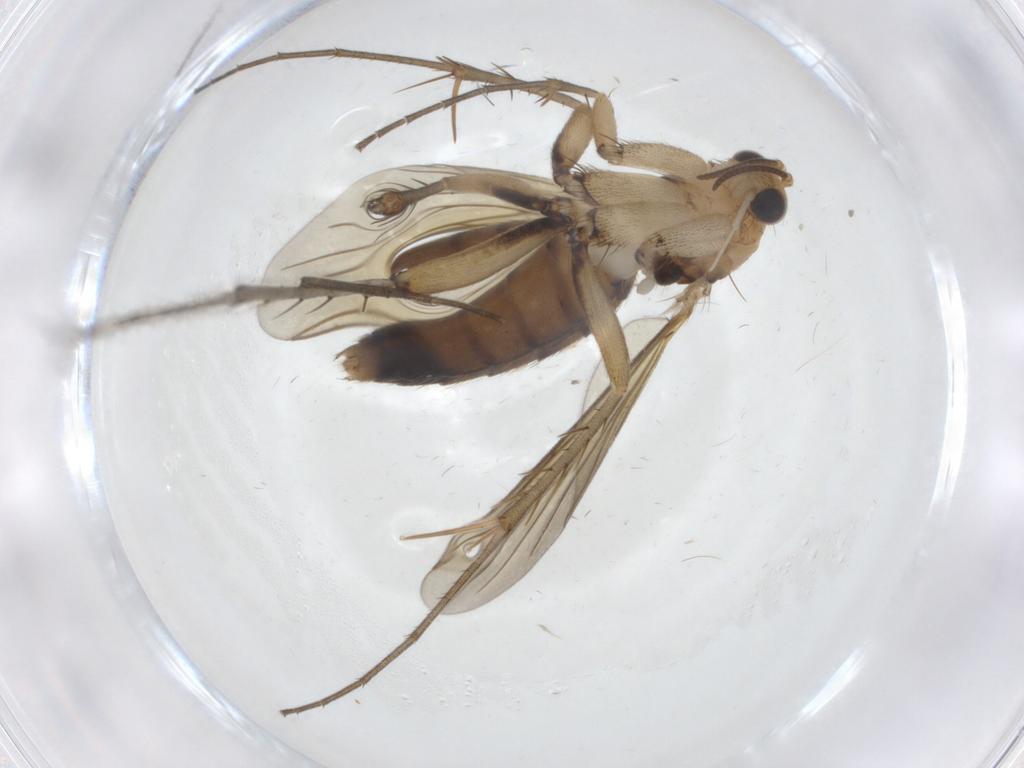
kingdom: Animalia
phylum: Arthropoda
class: Insecta
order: Diptera
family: Mycetophilidae
